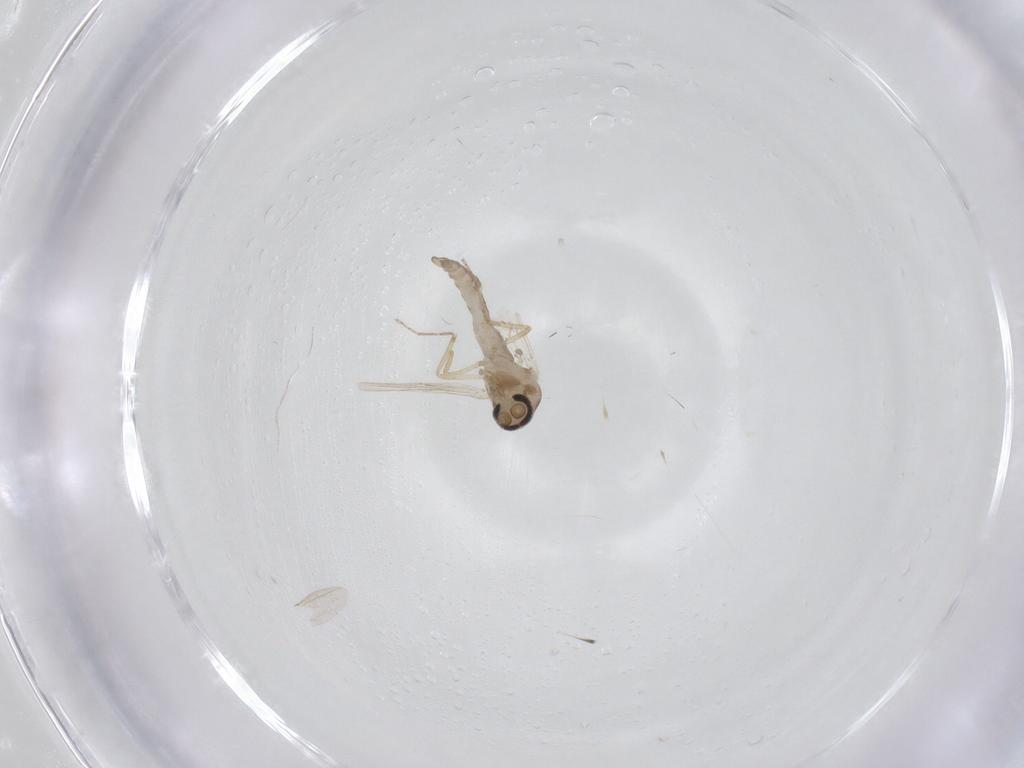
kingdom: Animalia
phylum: Arthropoda
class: Insecta
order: Diptera
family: Ceratopogonidae
